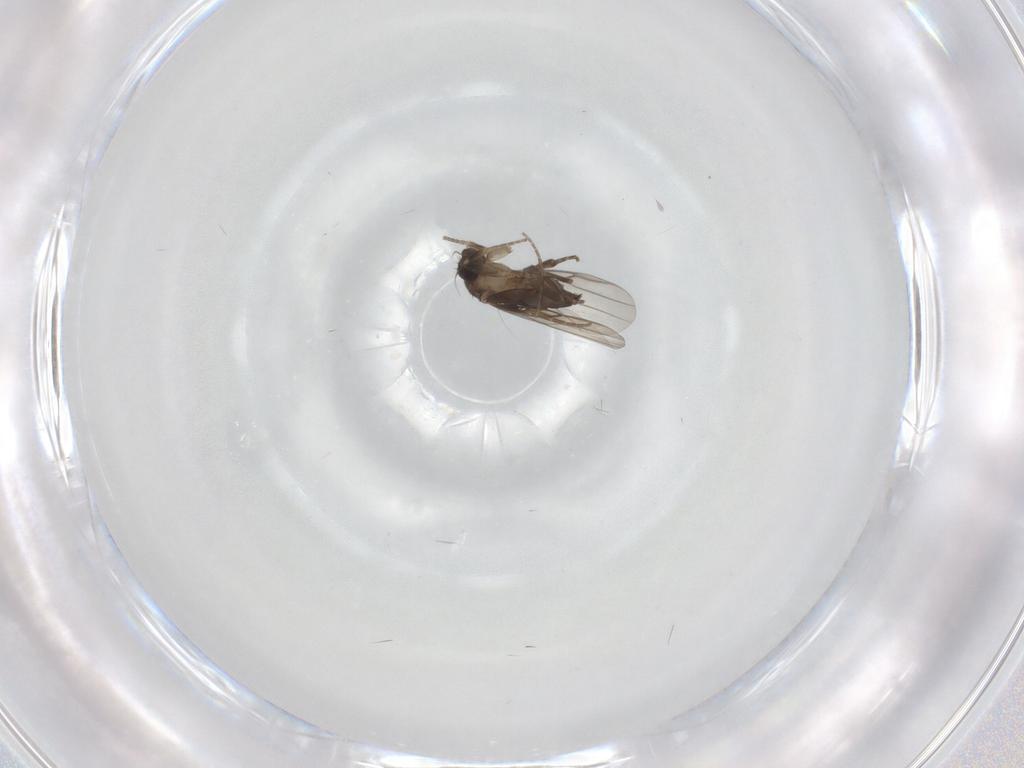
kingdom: Animalia
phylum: Arthropoda
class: Insecta
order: Diptera
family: Phoridae
